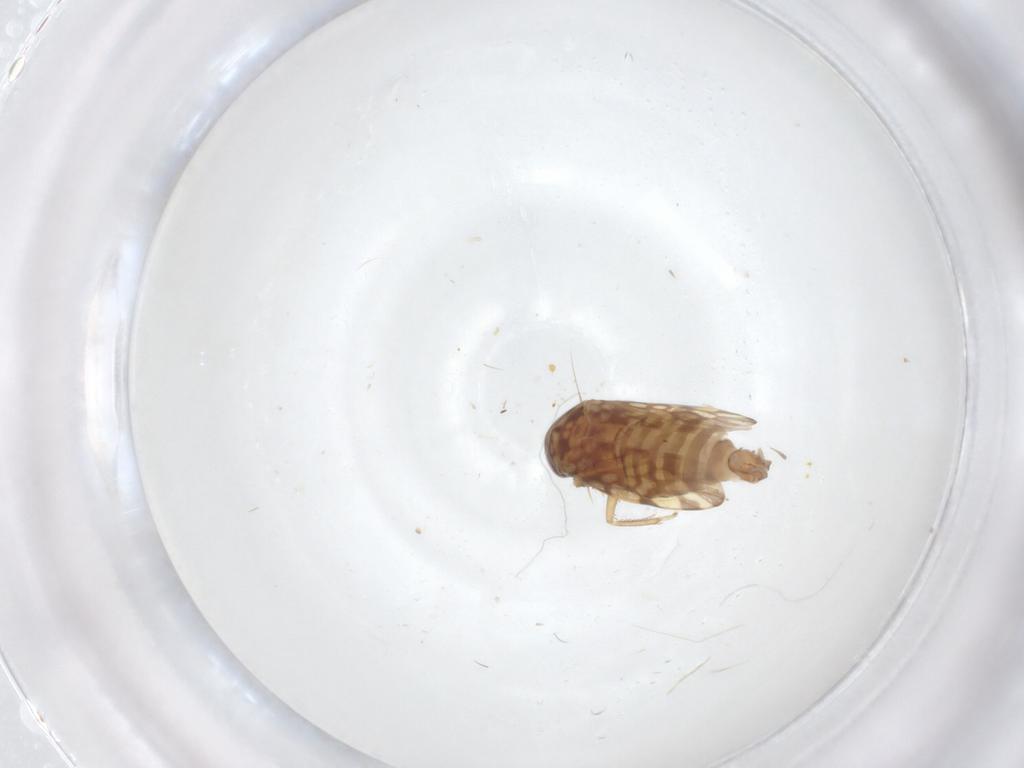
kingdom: Animalia
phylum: Arthropoda
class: Insecta
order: Hemiptera
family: Cicadellidae
